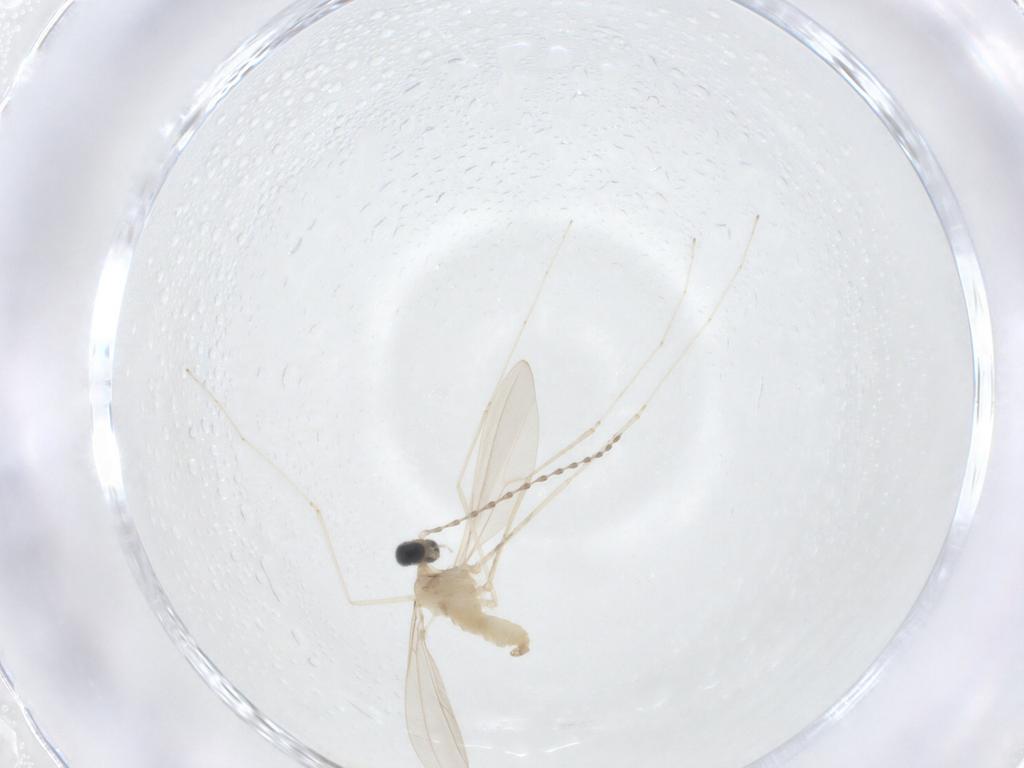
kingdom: Animalia
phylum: Arthropoda
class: Insecta
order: Diptera
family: Cecidomyiidae
